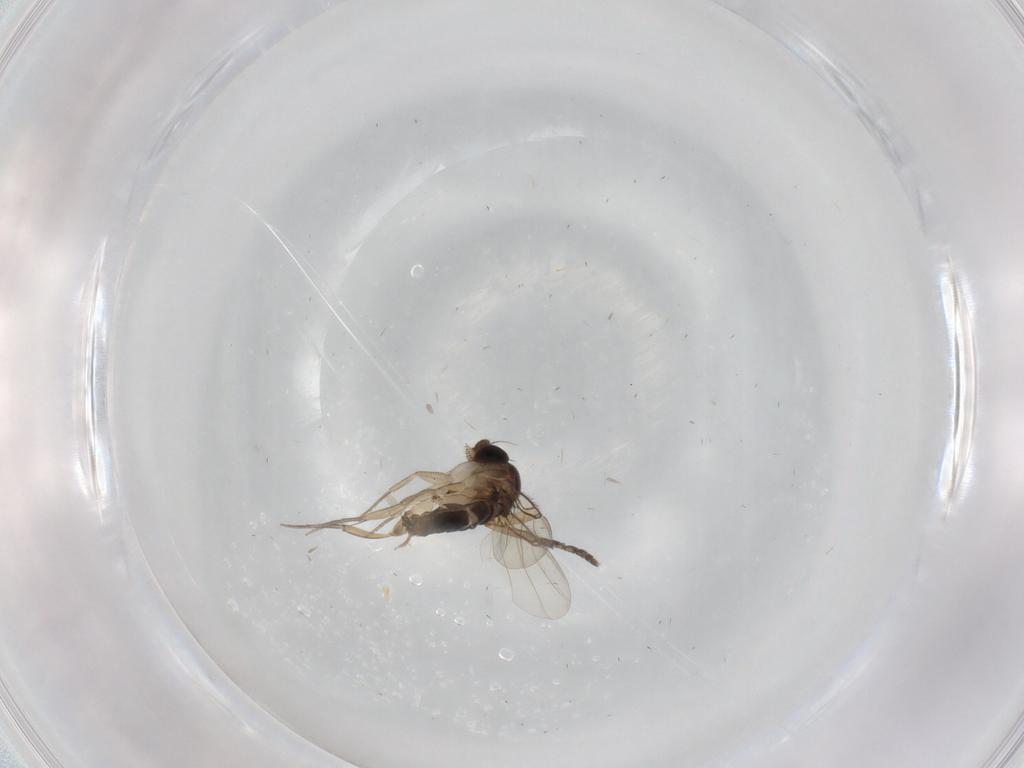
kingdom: Animalia
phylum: Arthropoda
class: Insecta
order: Diptera
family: Phoridae
